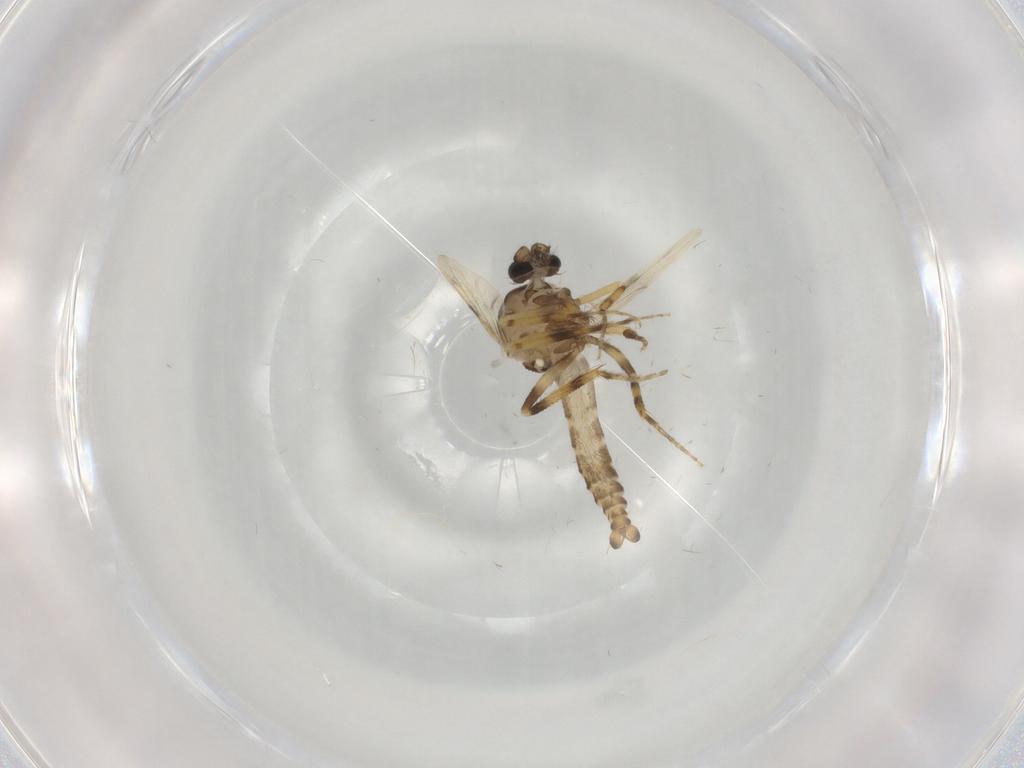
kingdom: Animalia
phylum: Arthropoda
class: Insecta
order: Diptera
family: Ceratopogonidae
